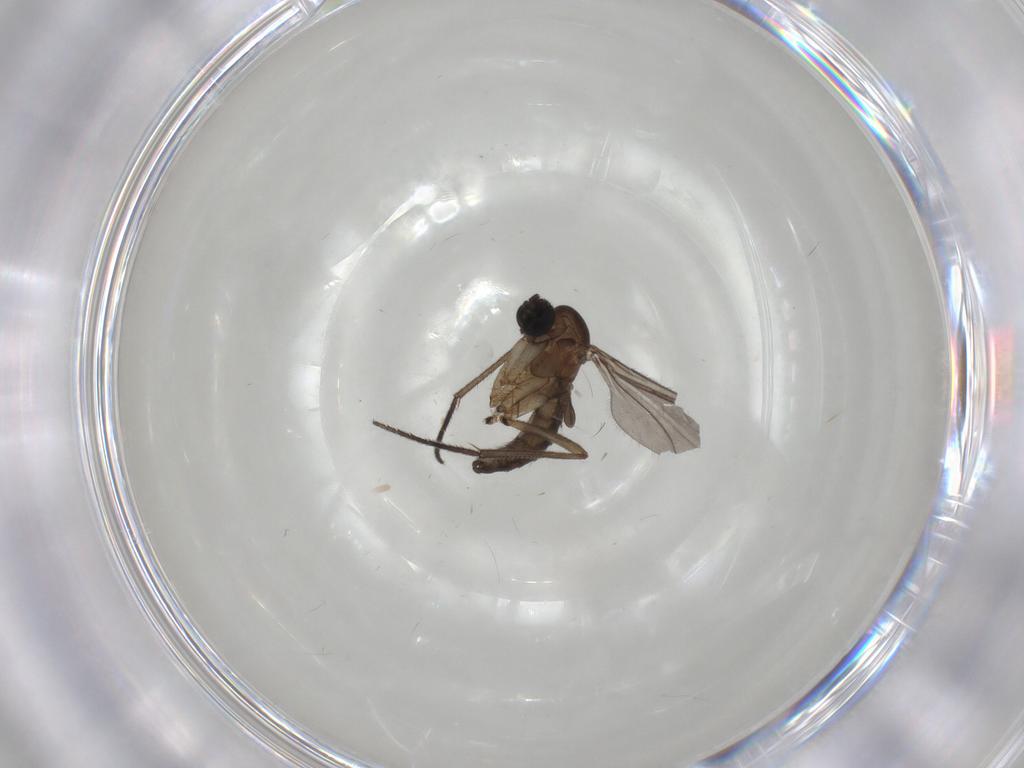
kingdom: Animalia
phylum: Arthropoda
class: Insecta
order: Diptera
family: Sciaridae
